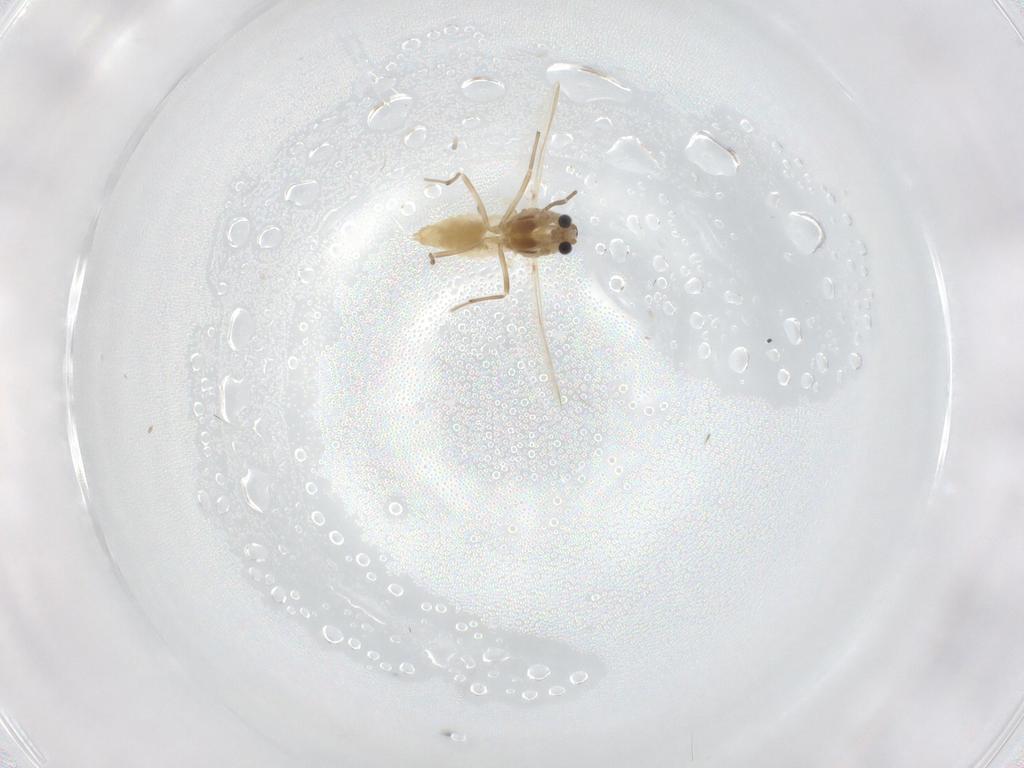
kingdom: Animalia
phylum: Arthropoda
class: Insecta
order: Diptera
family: Chironomidae
